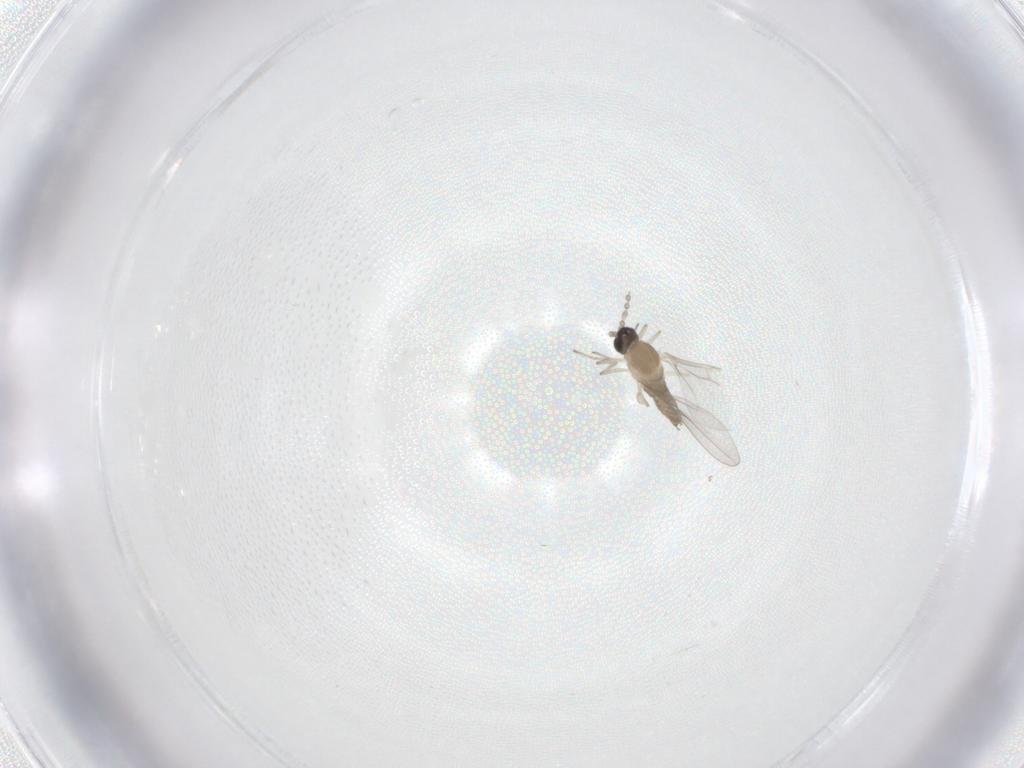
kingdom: Animalia
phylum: Arthropoda
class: Insecta
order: Diptera
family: Cecidomyiidae
